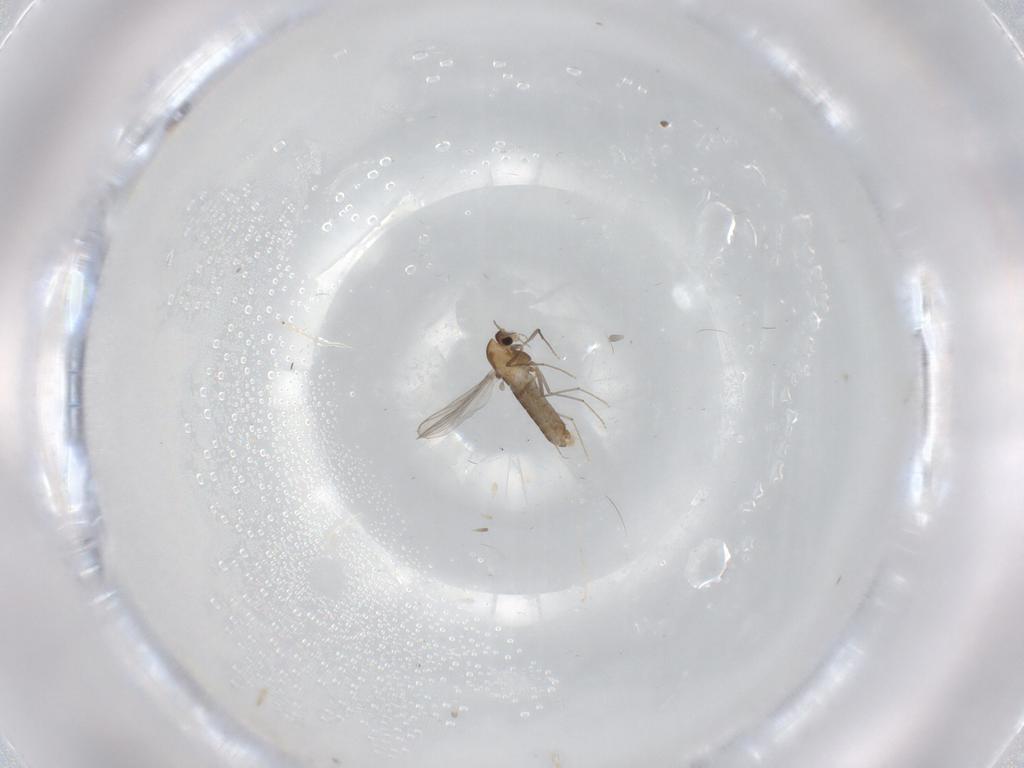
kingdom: Animalia
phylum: Arthropoda
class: Insecta
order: Diptera
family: Chironomidae
